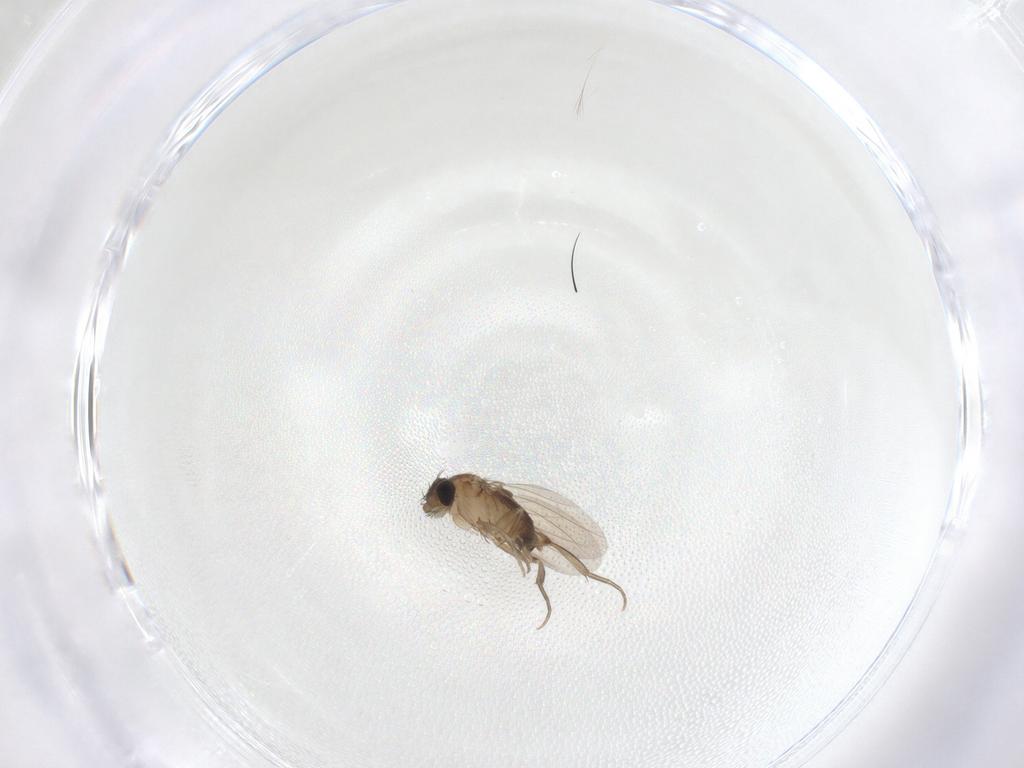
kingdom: Animalia
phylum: Arthropoda
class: Insecta
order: Diptera
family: Phoridae
